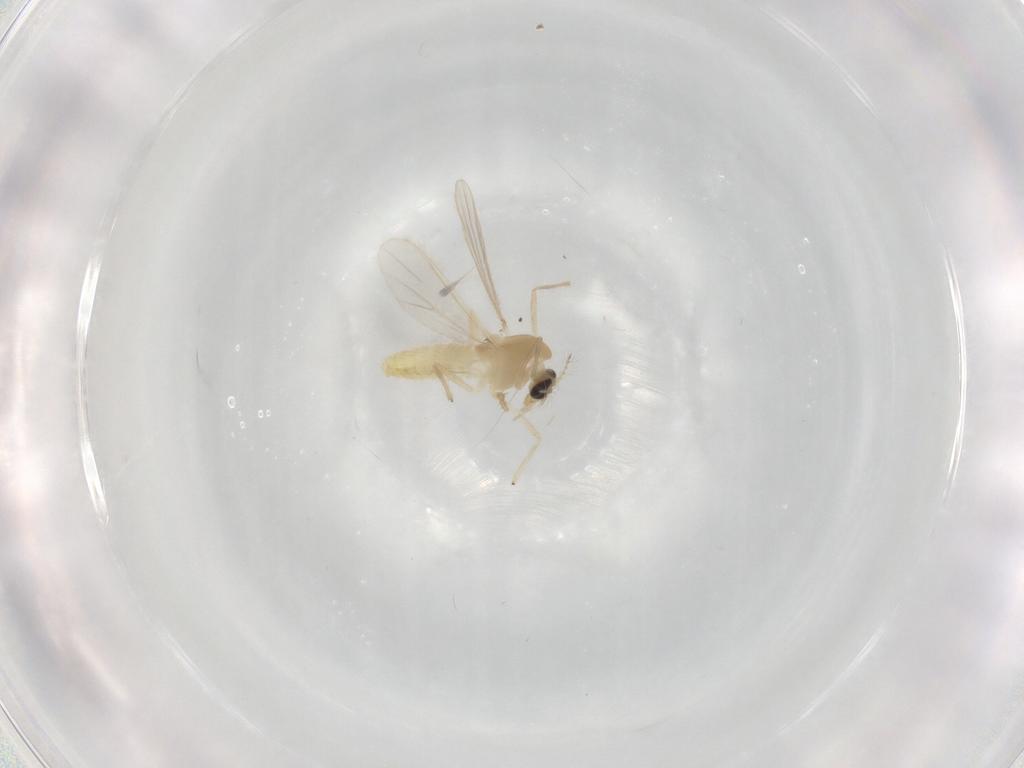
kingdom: Animalia
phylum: Arthropoda
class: Insecta
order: Diptera
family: Chironomidae
